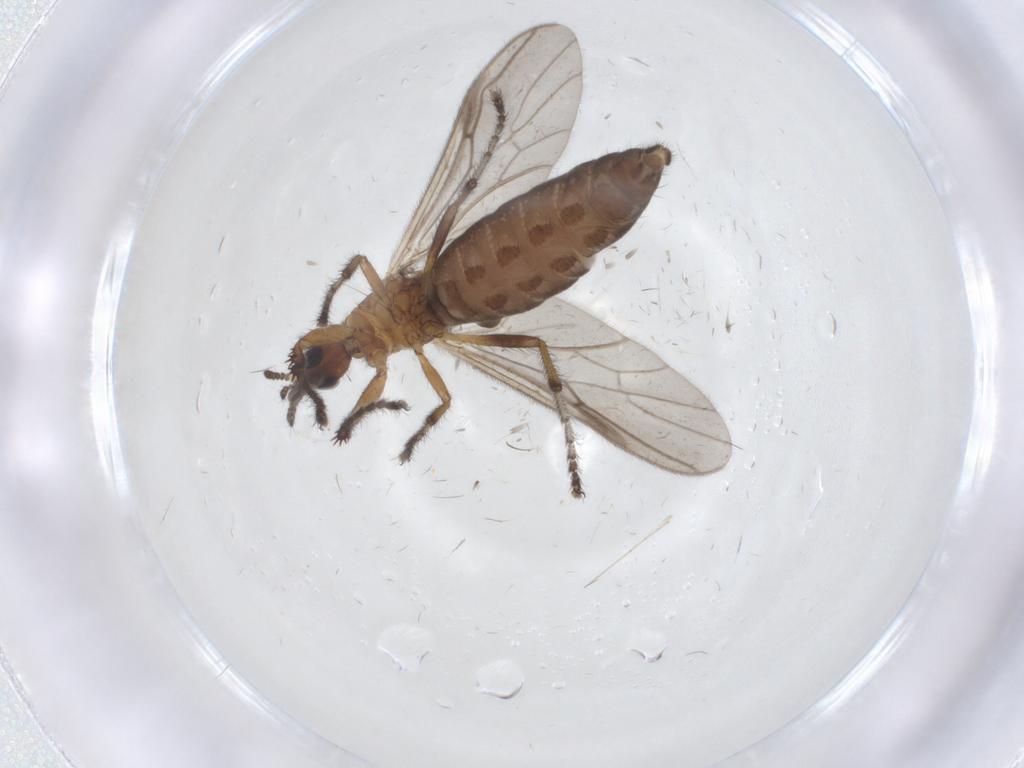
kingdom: Animalia
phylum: Arthropoda
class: Insecta
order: Diptera
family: Bibionidae
